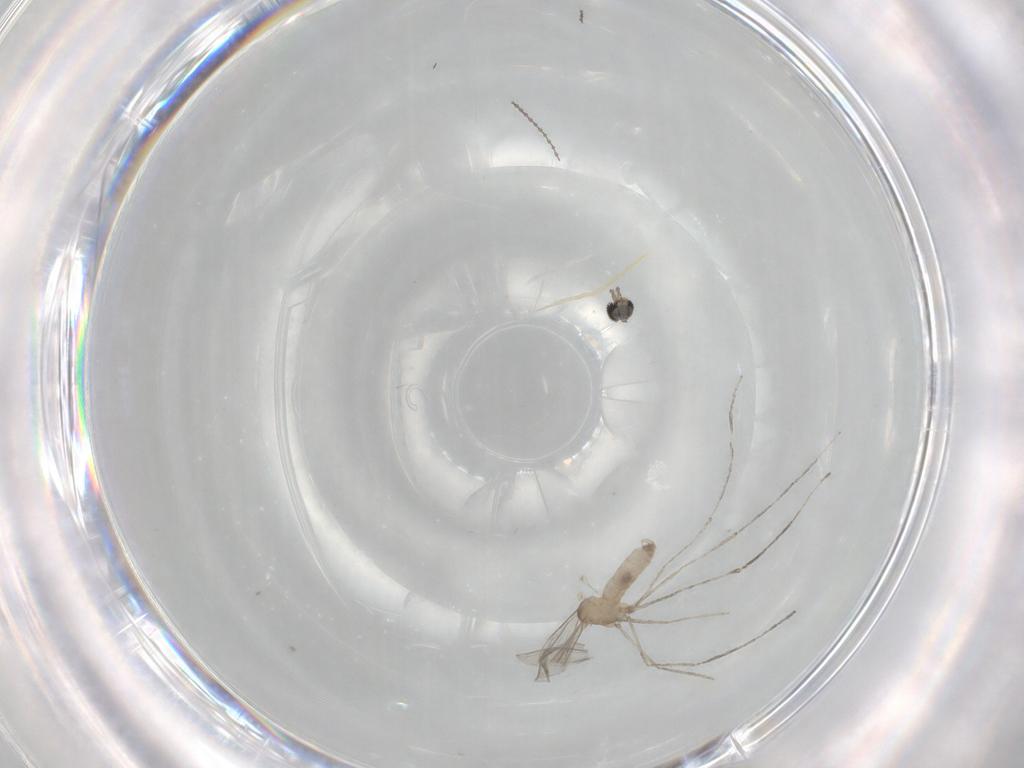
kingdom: Animalia
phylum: Arthropoda
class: Insecta
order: Diptera
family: Cecidomyiidae
